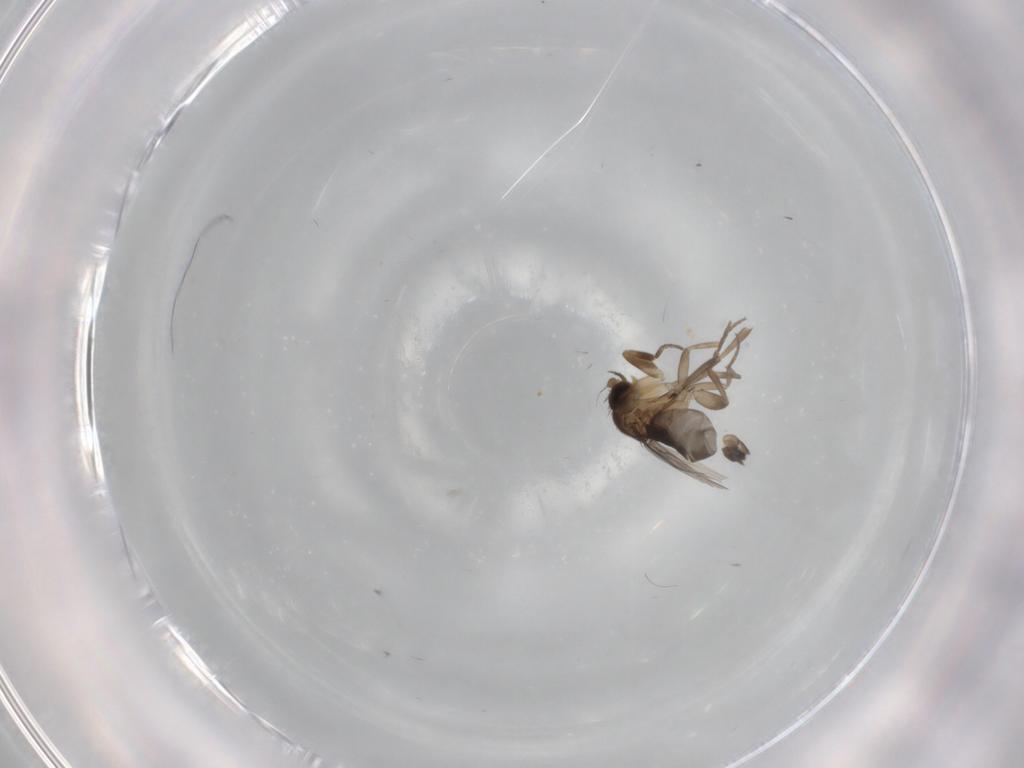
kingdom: Animalia
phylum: Arthropoda
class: Insecta
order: Diptera
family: Phoridae
